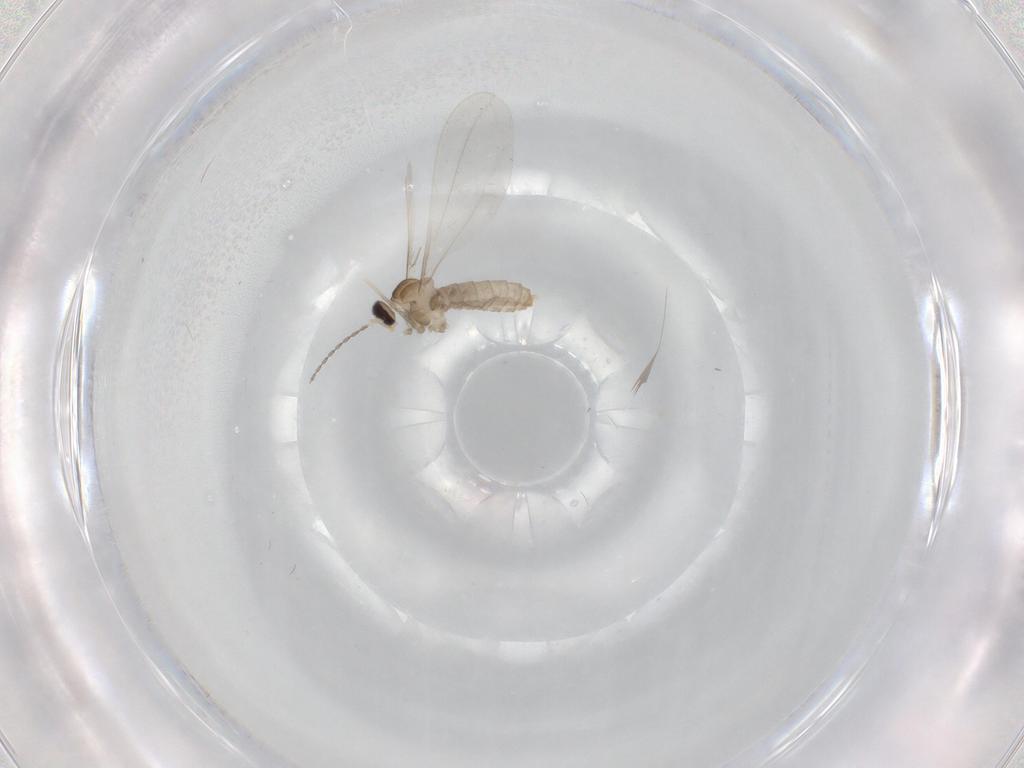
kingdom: Animalia
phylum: Arthropoda
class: Insecta
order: Diptera
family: Cecidomyiidae
